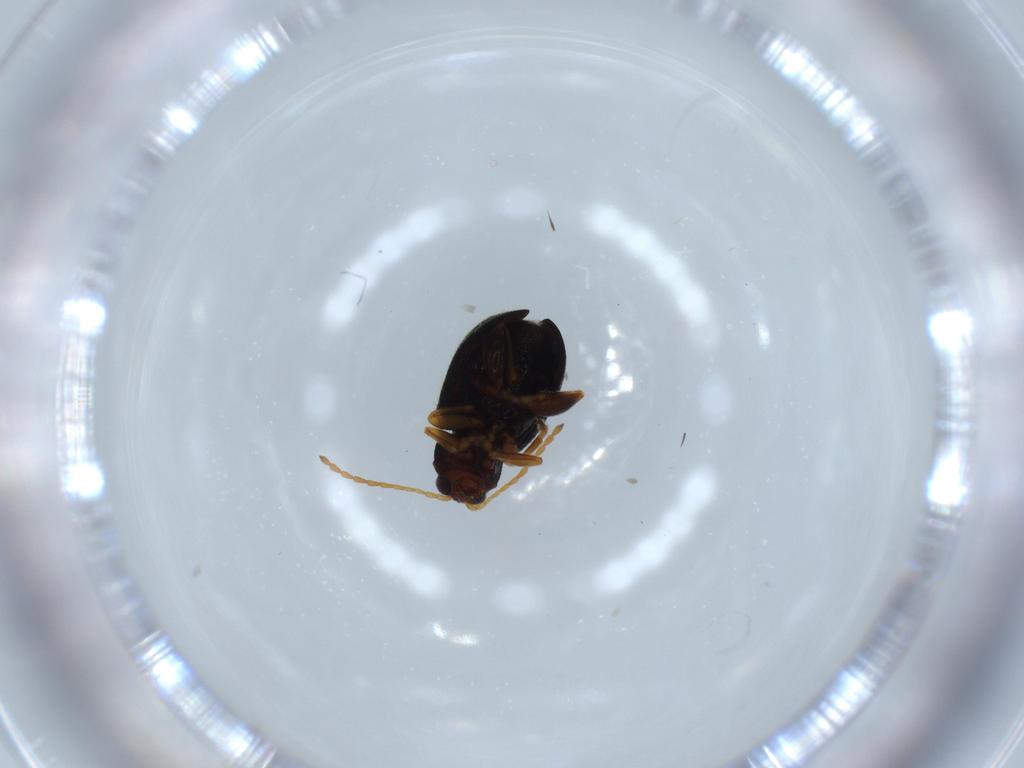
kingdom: Animalia
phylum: Arthropoda
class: Insecta
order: Coleoptera
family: Chrysomelidae
